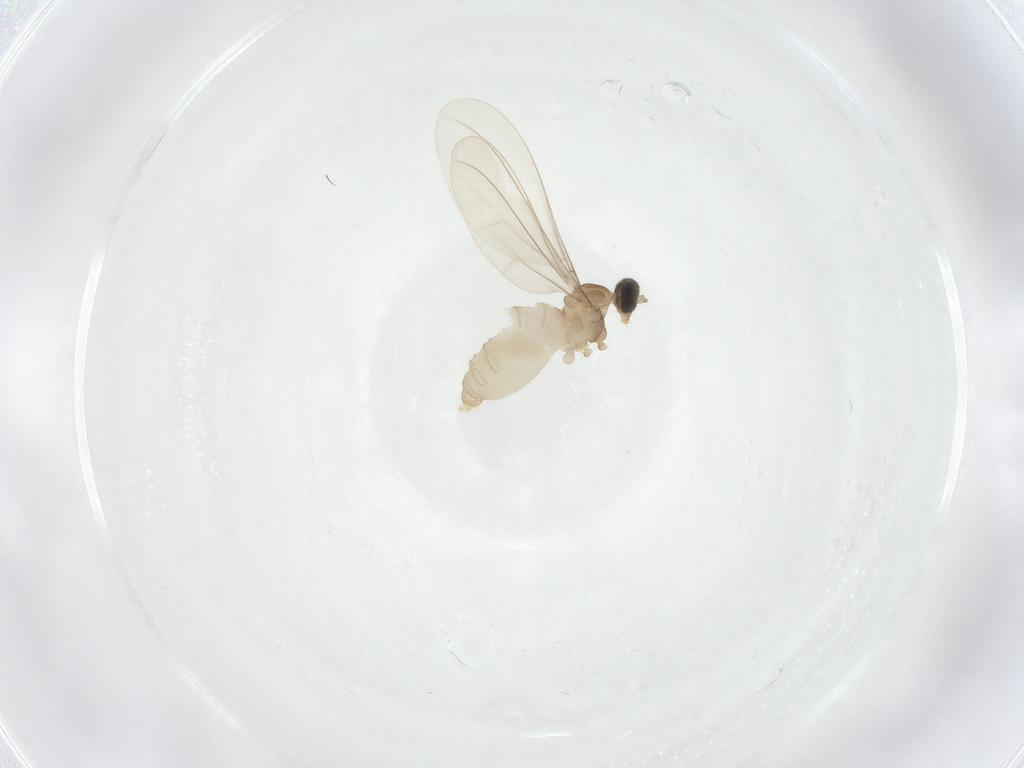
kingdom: Animalia
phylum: Arthropoda
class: Insecta
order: Diptera
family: Cecidomyiidae
